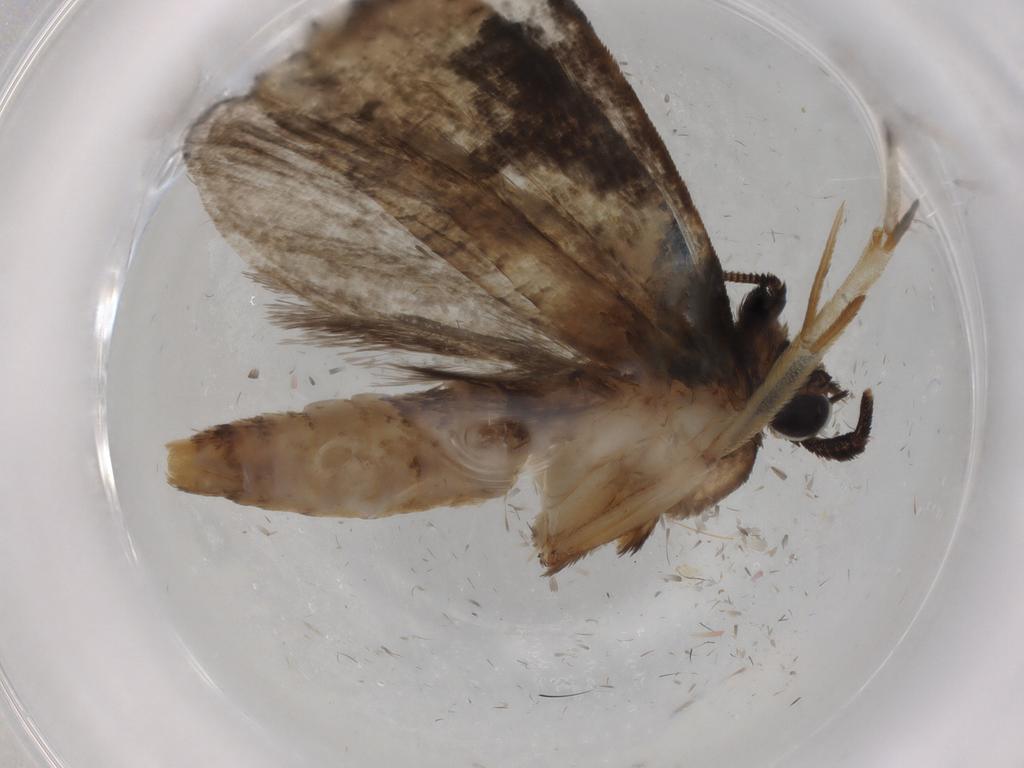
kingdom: Animalia
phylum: Arthropoda
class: Insecta
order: Lepidoptera
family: Tineidae
